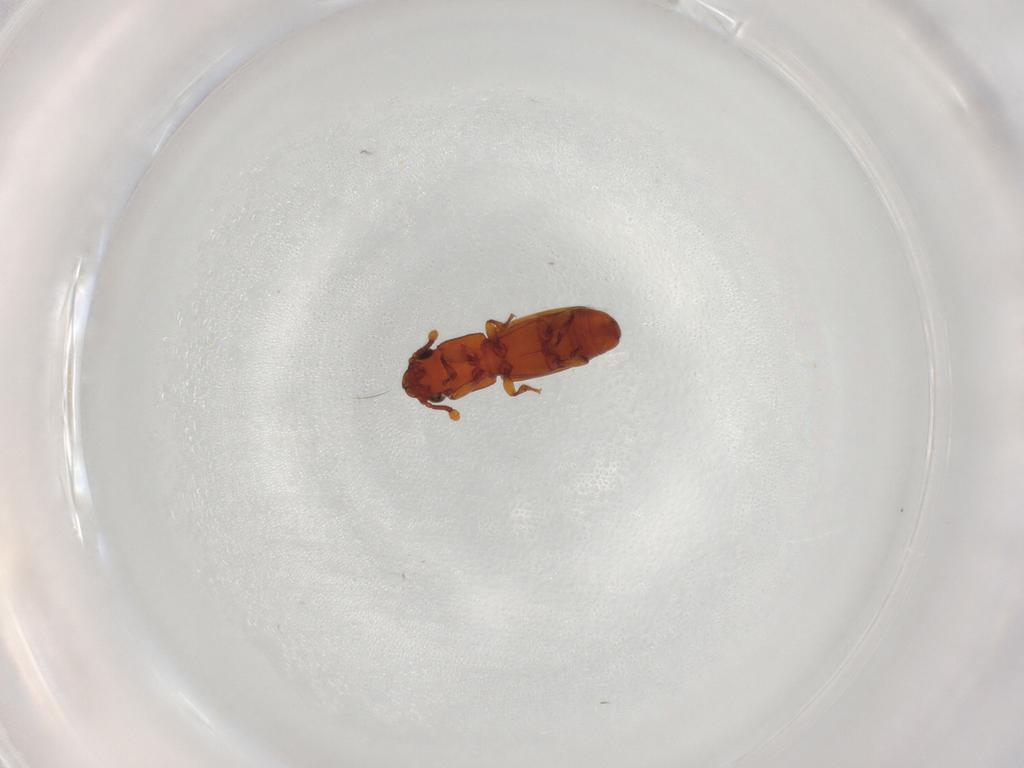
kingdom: Animalia
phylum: Arthropoda
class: Insecta
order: Coleoptera
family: Monotomidae
